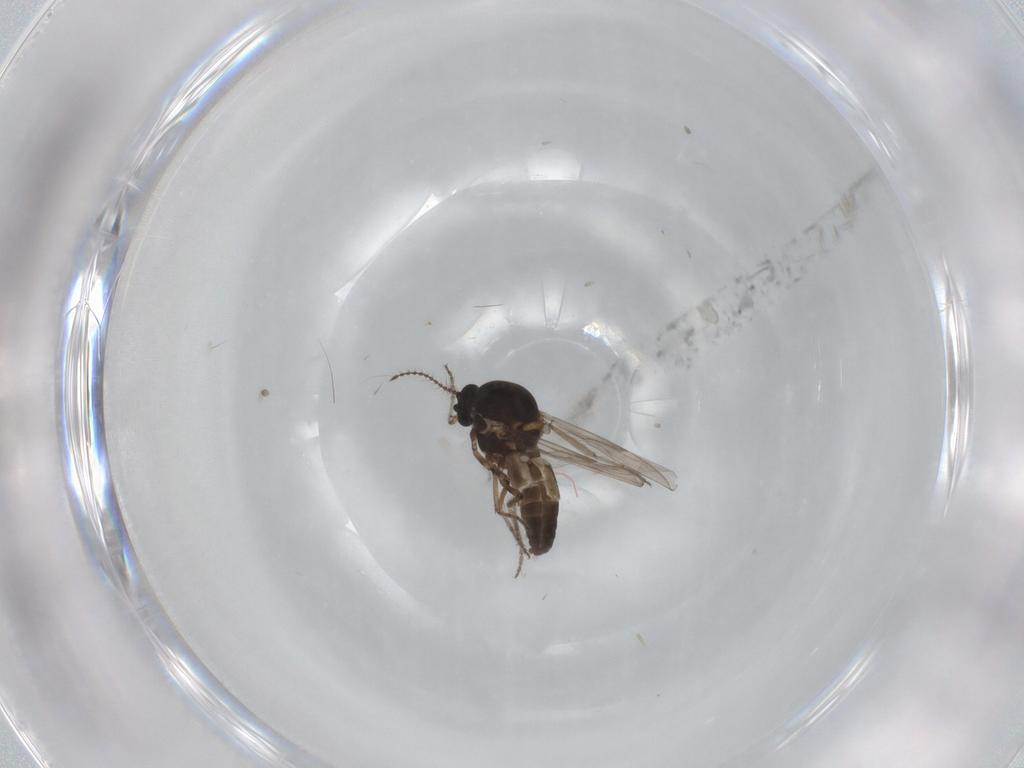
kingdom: Animalia
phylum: Arthropoda
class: Insecta
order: Diptera
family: Ceratopogonidae
